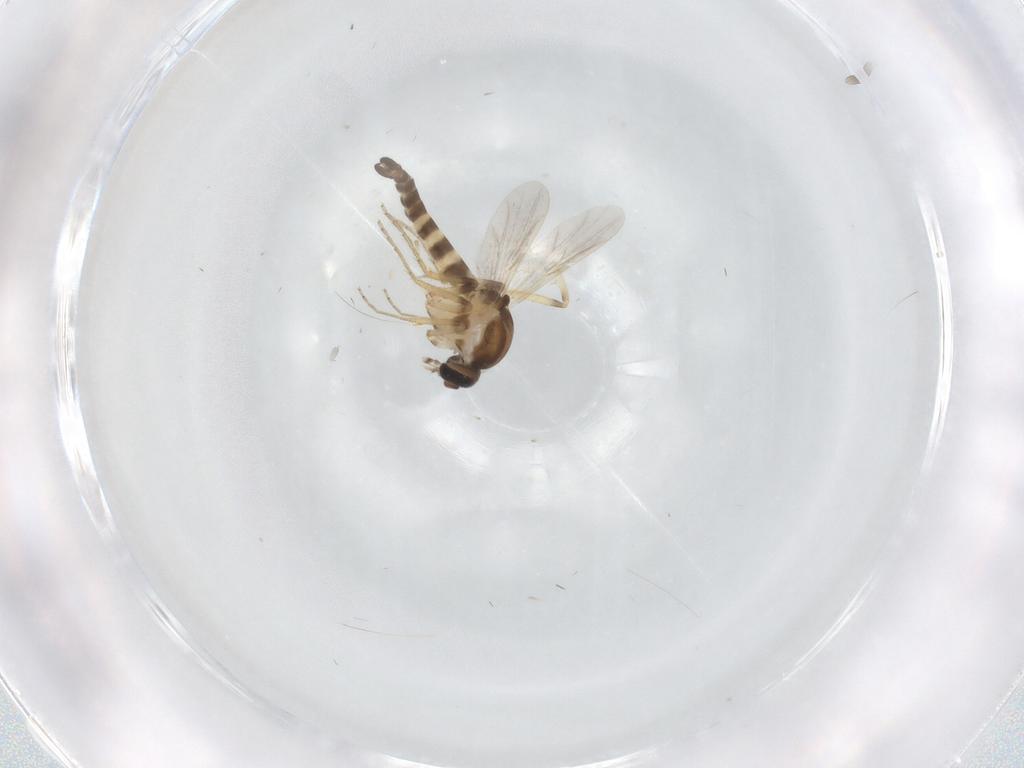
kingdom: Animalia
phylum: Arthropoda
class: Insecta
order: Diptera
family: Ceratopogonidae
